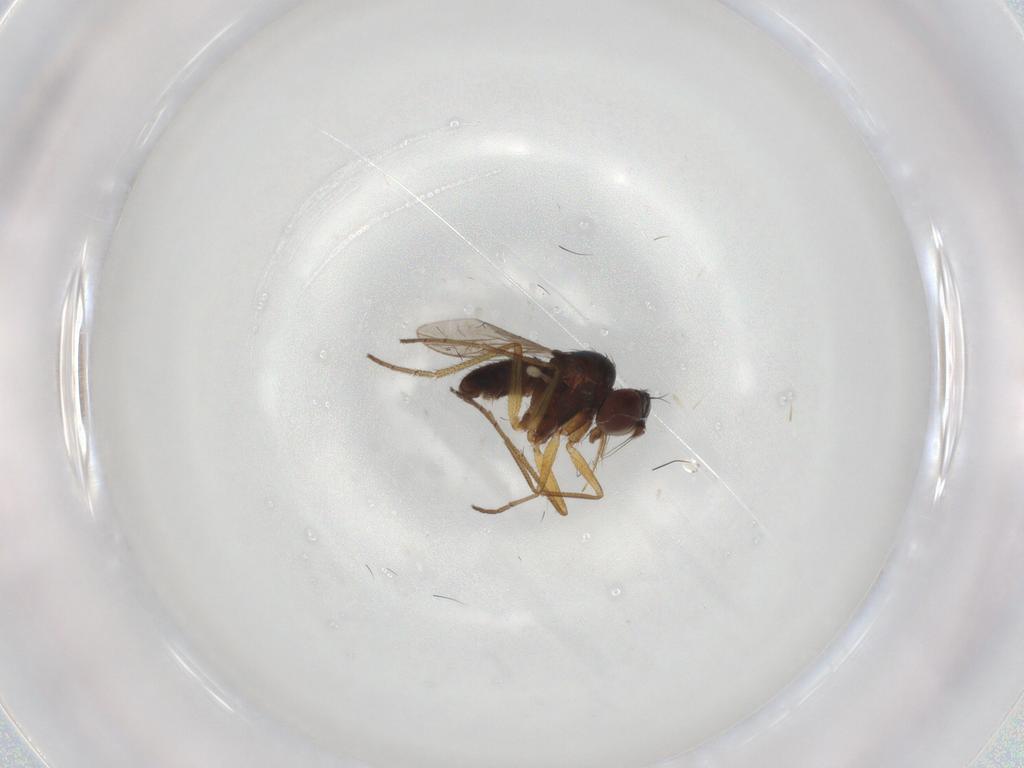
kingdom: Animalia
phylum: Arthropoda
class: Insecta
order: Diptera
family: Dolichopodidae
